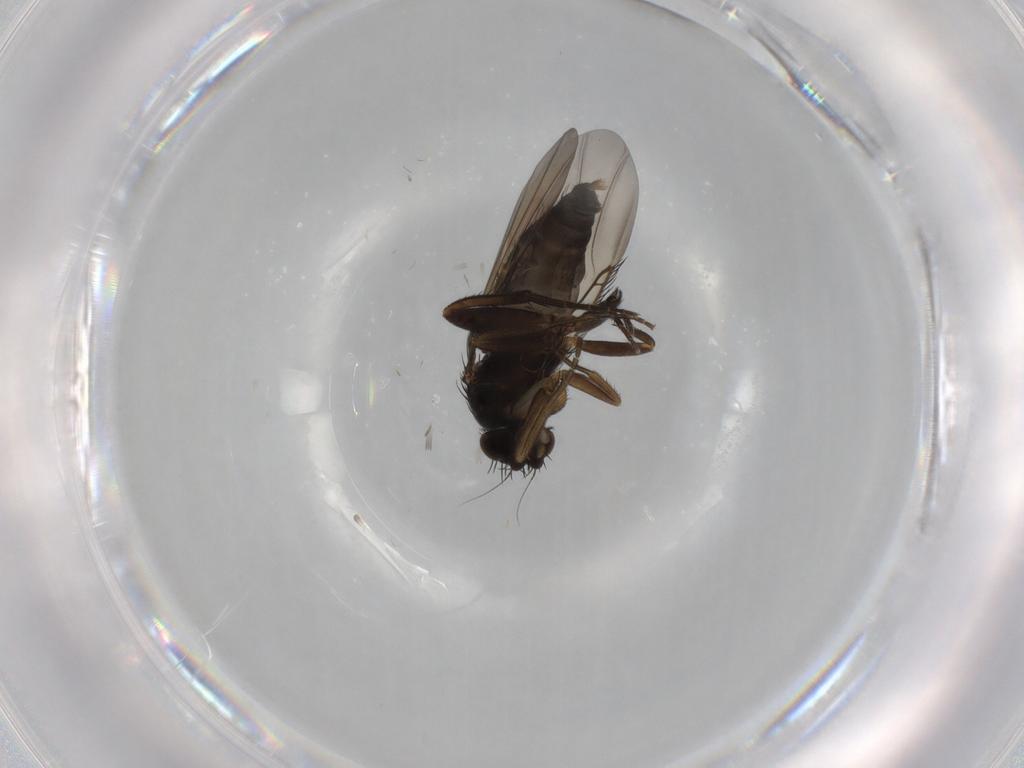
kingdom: Animalia
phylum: Arthropoda
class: Insecta
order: Diptera
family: Phoridae
